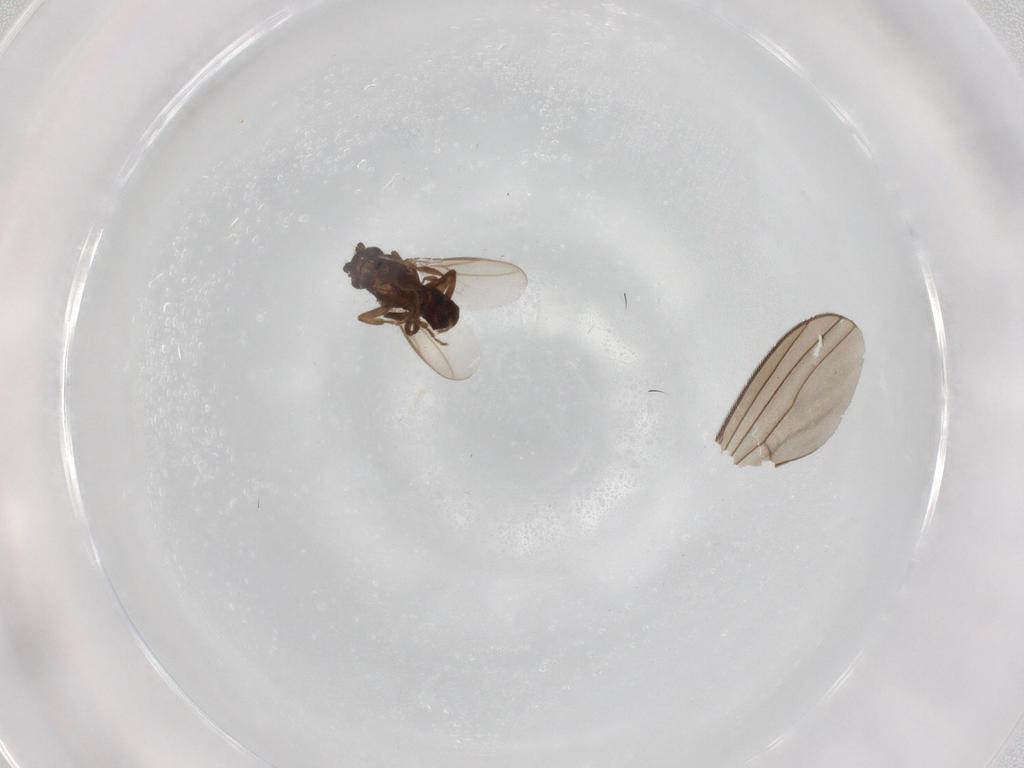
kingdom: Animalia
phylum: Arthropoda
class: Insecta
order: Diptera
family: Sphaeroceridae
